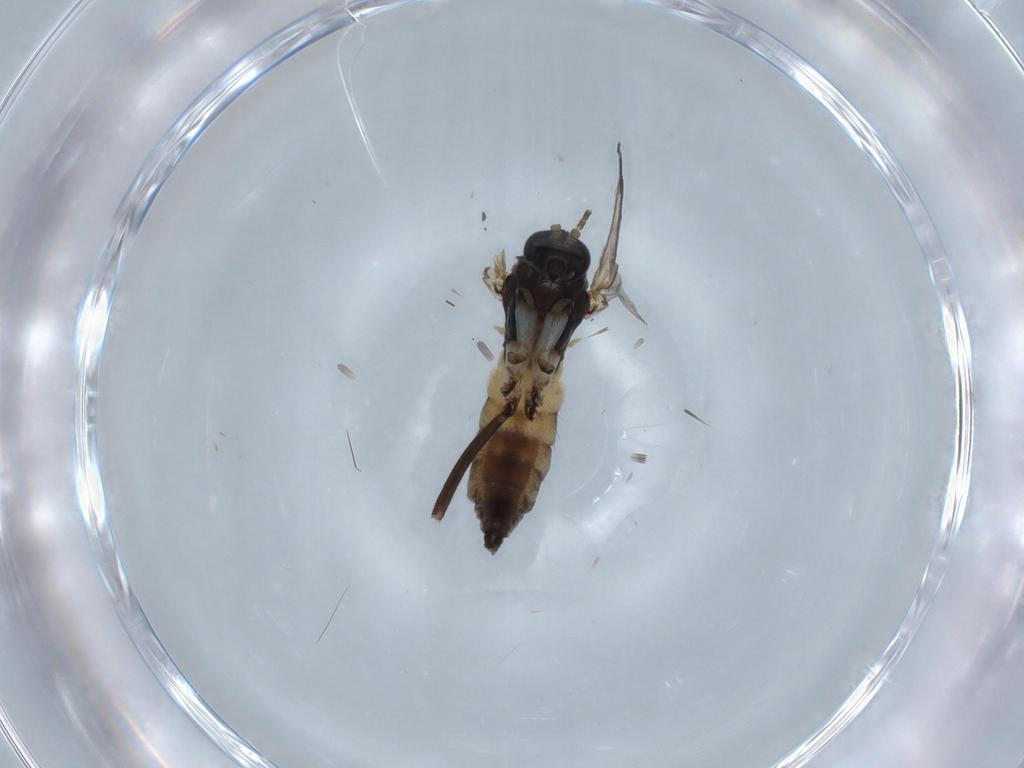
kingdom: Animalia
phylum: Arthropoda
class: Insecta
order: Diptera
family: Sciaridae
